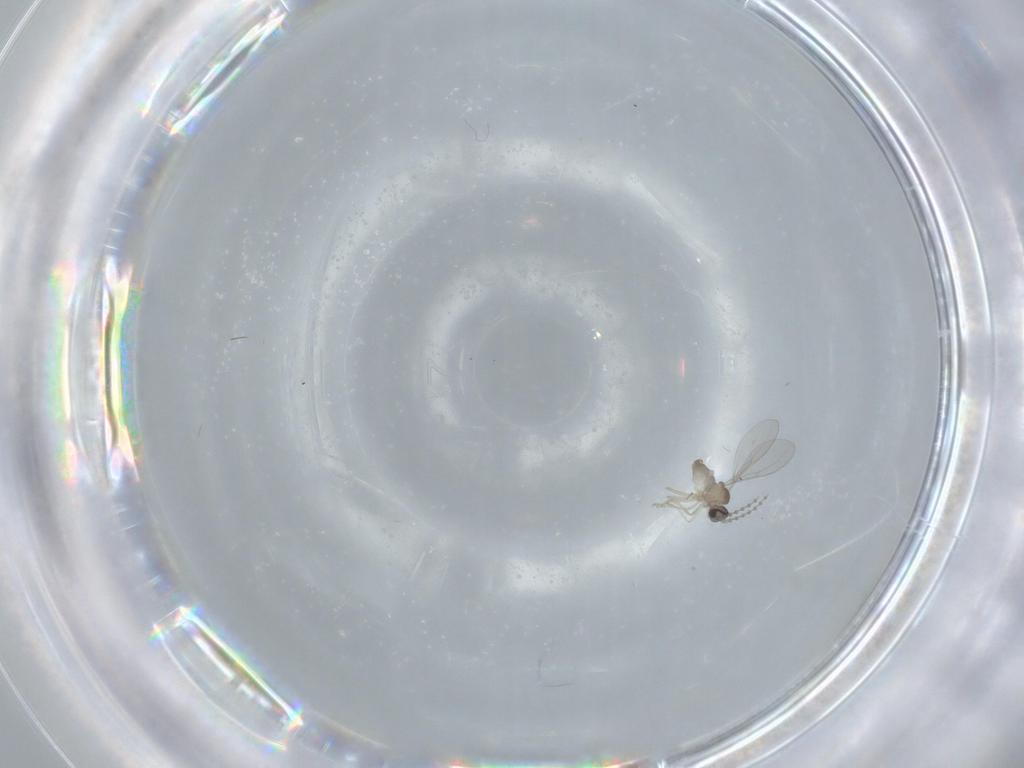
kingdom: Animalia
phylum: Arthropoda
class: Insecta
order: Diptera
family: Cecidomyiidae
